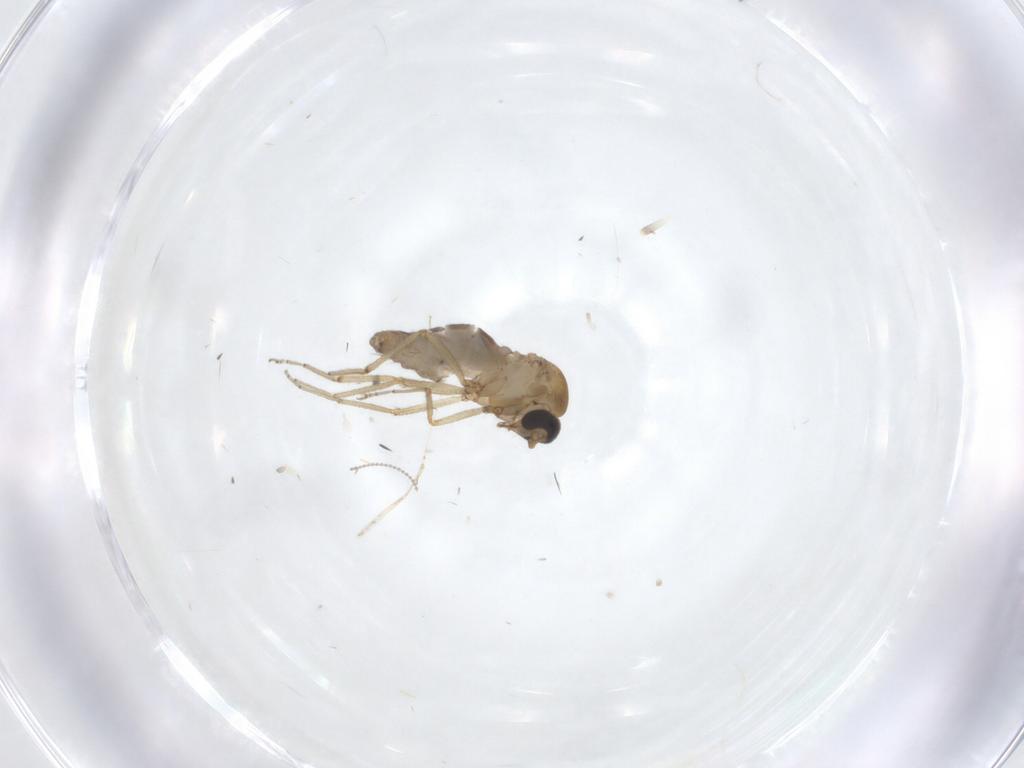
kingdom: Animalia
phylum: Arthropoda
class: Insecta
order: Diptera
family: Ceratopogonidae
